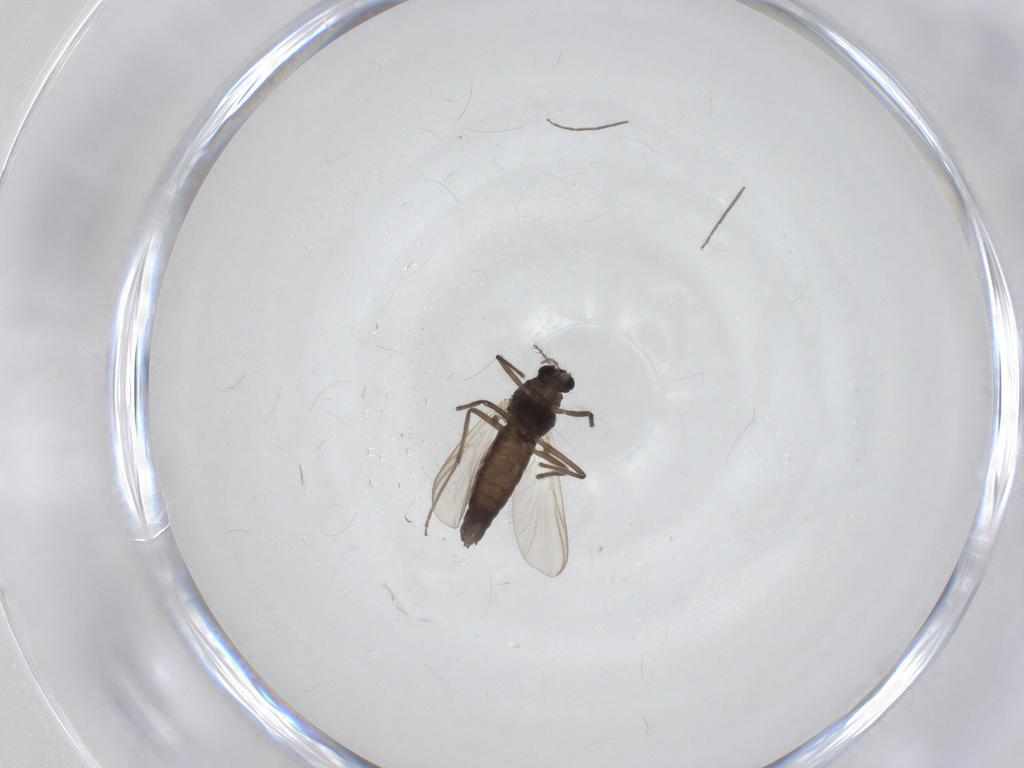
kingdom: Animalia
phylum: Arthropoda
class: Insecta
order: Diptera
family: Chironomidae
